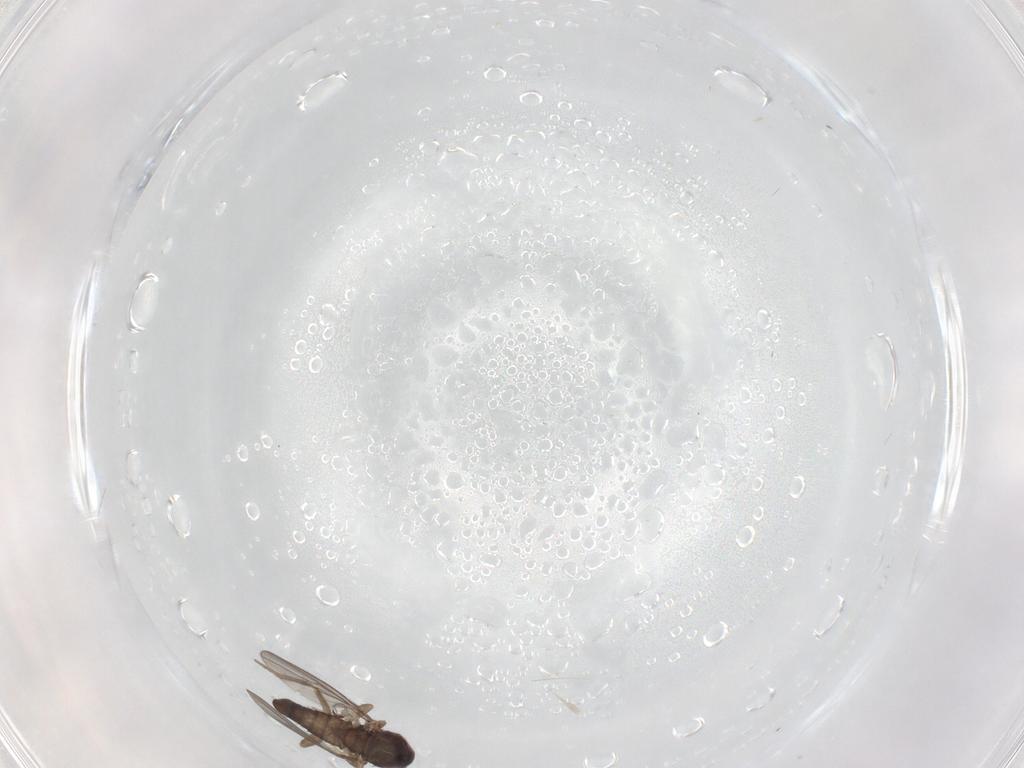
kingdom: Animalia
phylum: Arthropoda
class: Insecta
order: Diptera
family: Dolichopodidae
